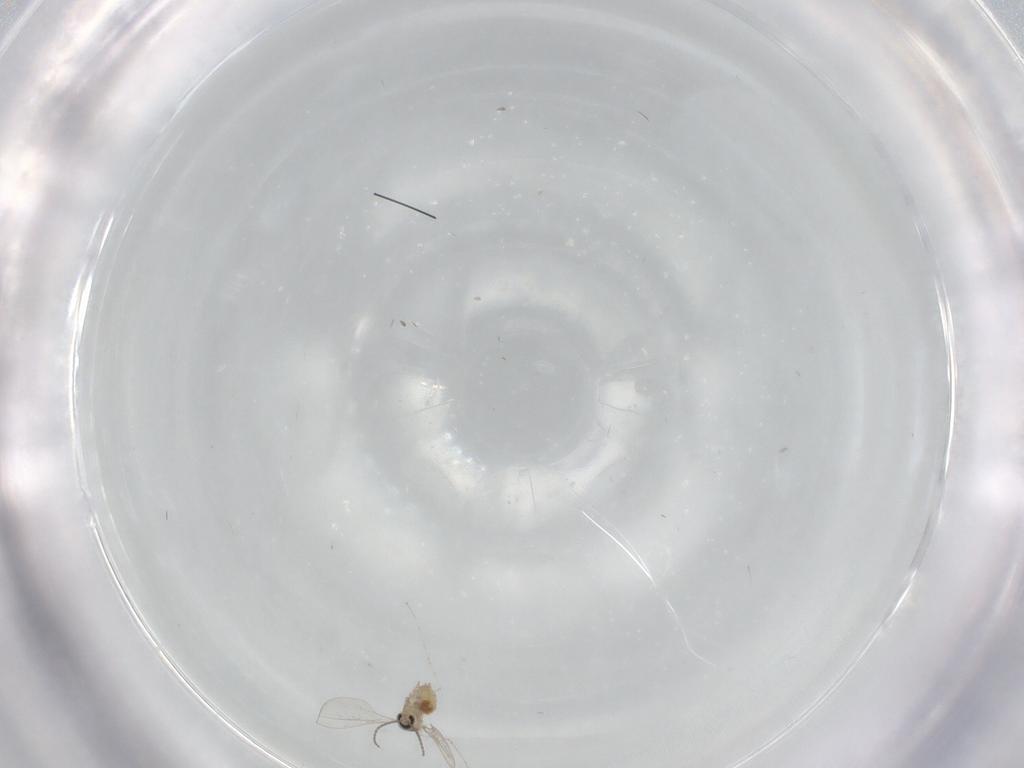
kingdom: Animalia
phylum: Arthropoda
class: Insecta
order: Diptera
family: Cecidomyiidae
